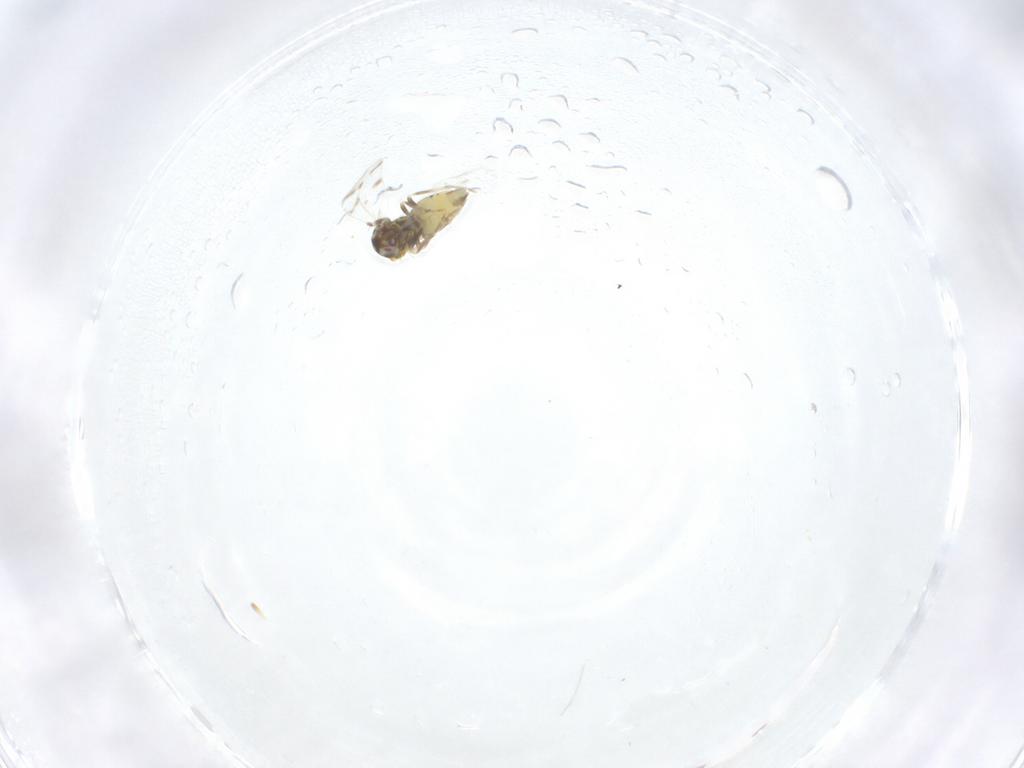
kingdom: Animalia
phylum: Arthropoda
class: Insecta
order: Hemiptera
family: Aleyrodidae
